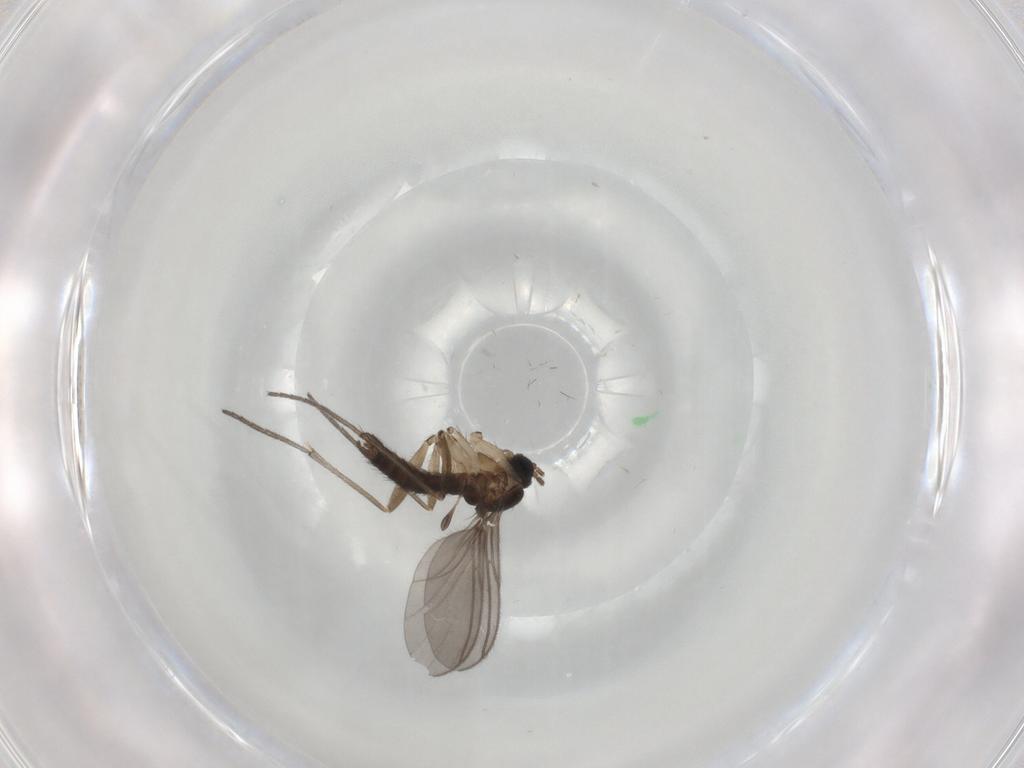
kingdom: Animalia
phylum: Arthropoda
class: Insecta
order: Diptera
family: Sciaridae
